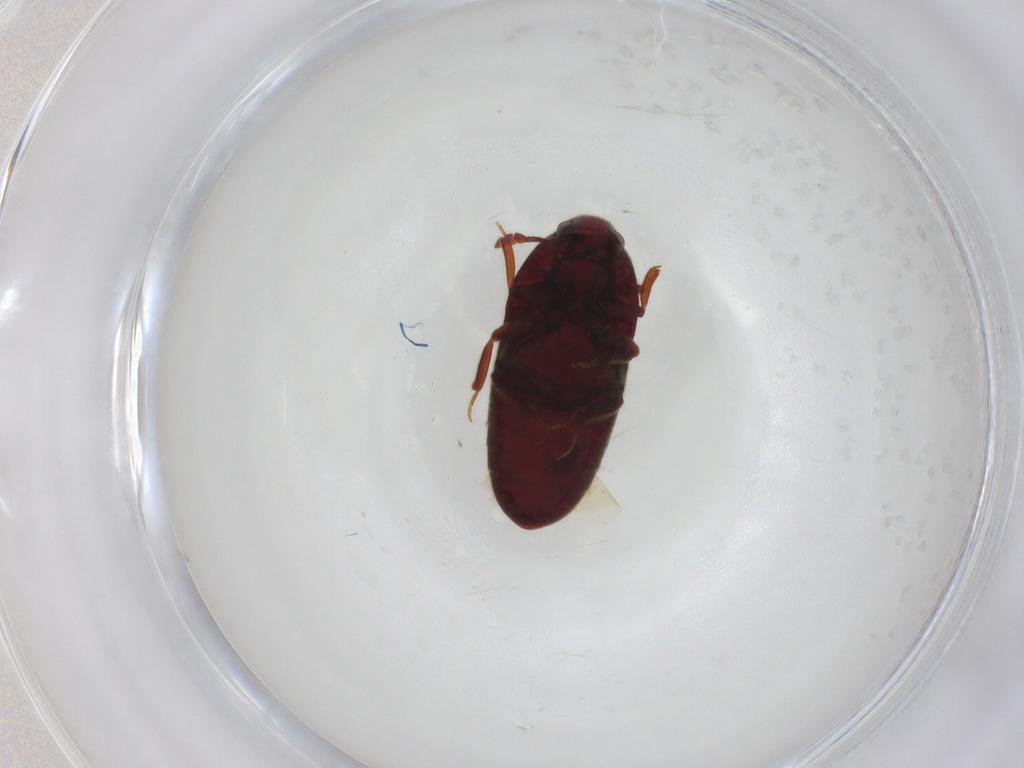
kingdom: Animalia
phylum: Arthropoda
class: Insecta
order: Coleoptera
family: Throscidae
